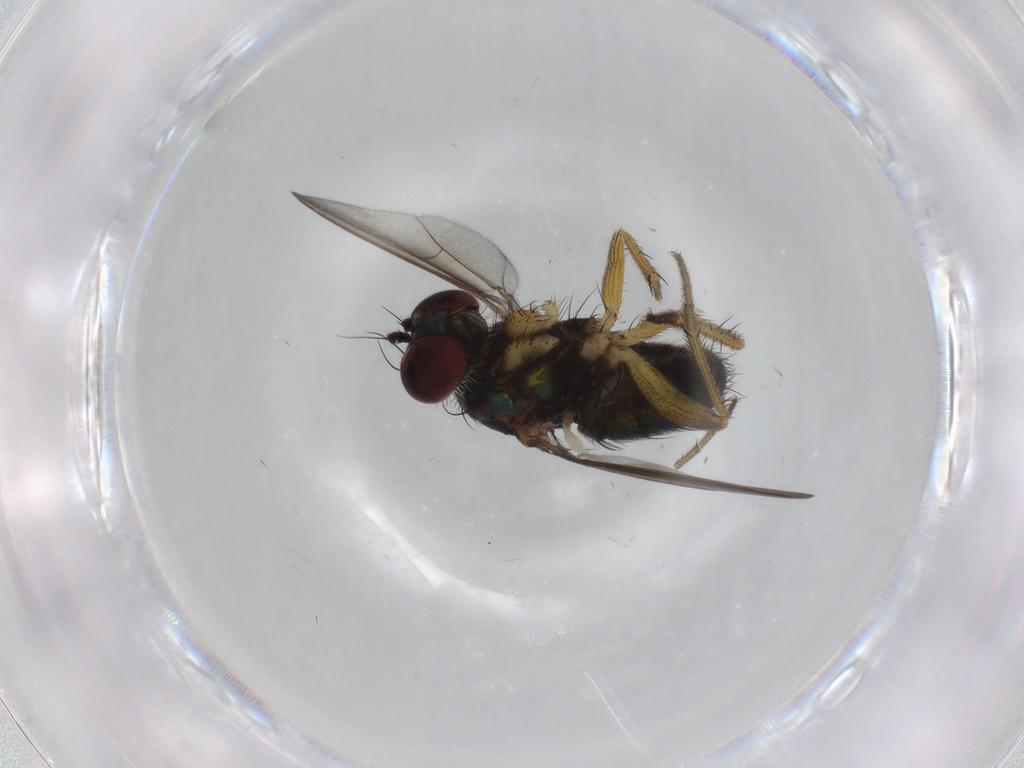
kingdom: Animalia
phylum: Arthropoda
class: Insecta
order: Diptera
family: Dolichopodidae
